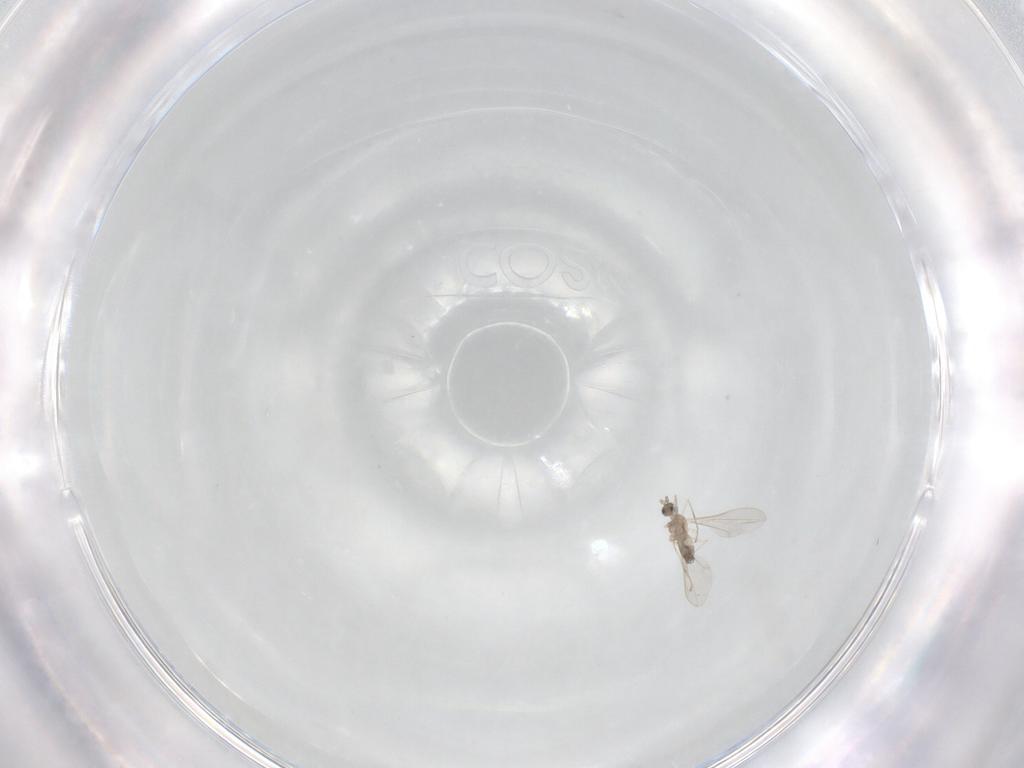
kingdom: Animalia
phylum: Arthropoda
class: Insecta
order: Diptera
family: Cecidomyiidae
